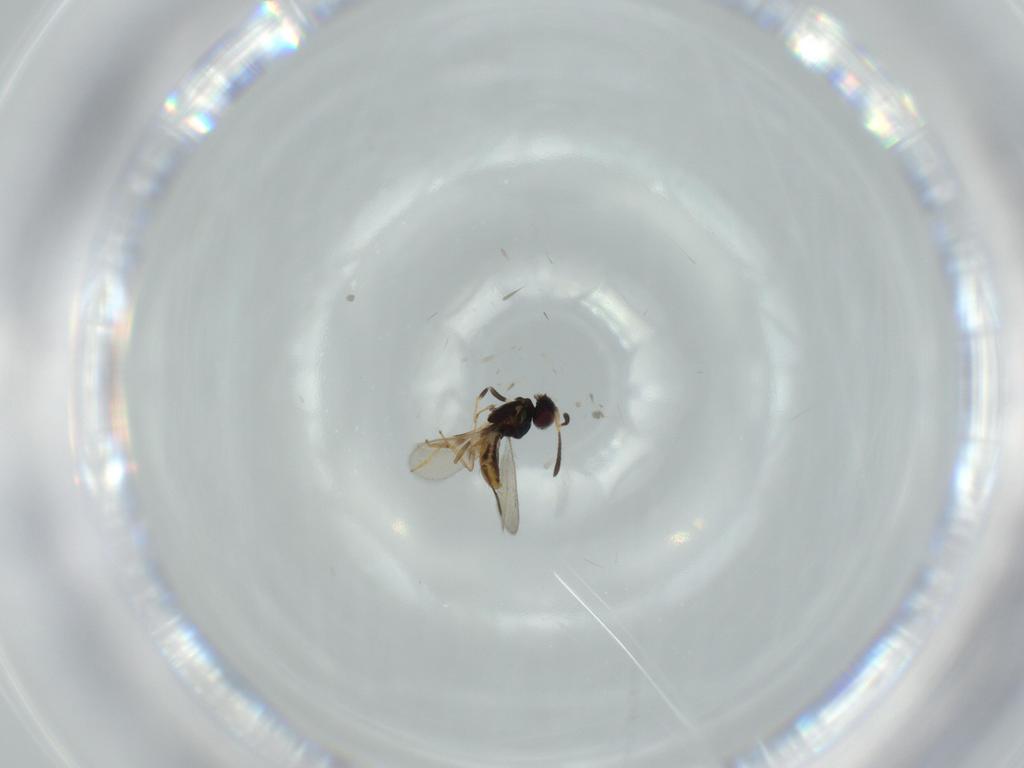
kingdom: Animalia
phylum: Arthropoda
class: Insecta
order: Hymenoptera
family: Eupelmidae
